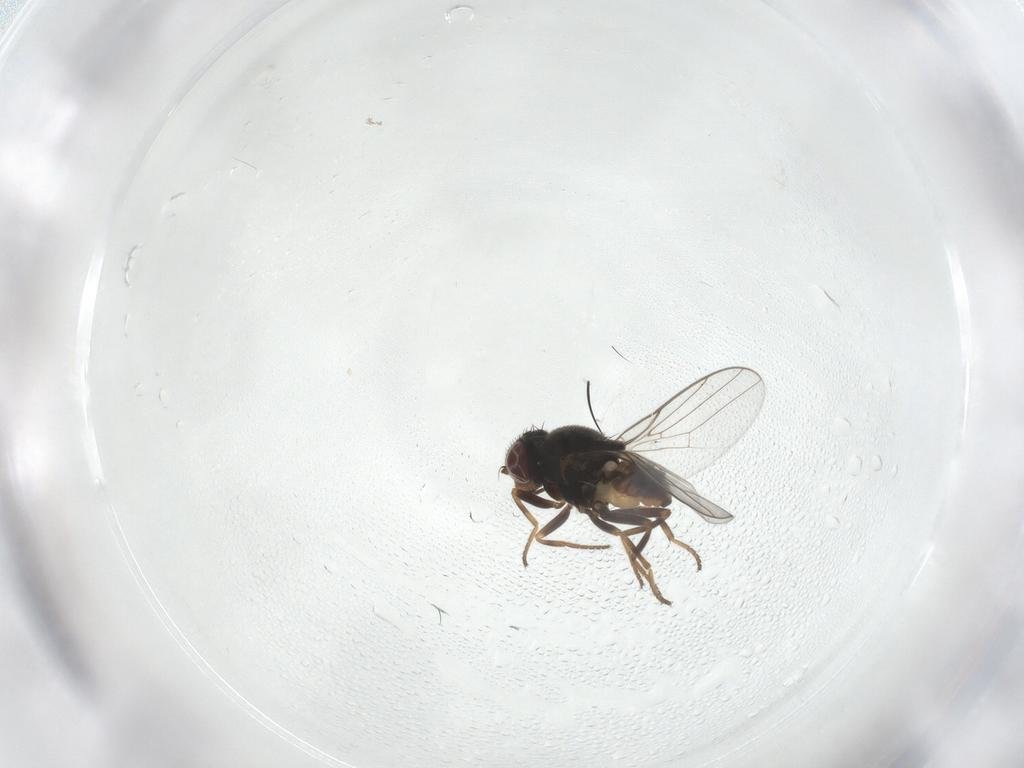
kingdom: Animalia
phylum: Arthropoda
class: Insecta
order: Diptera
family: Chloropidae
